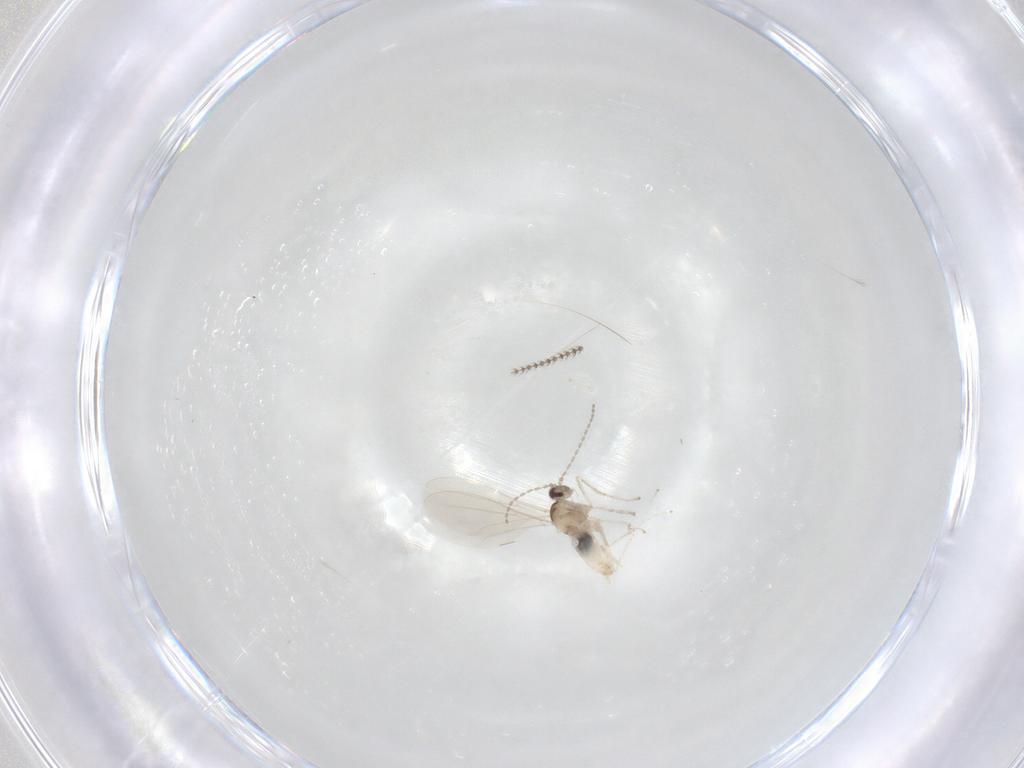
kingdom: Animalia
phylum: Arthropoda
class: Insecta
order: Diptera
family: Cecidomyiidae
